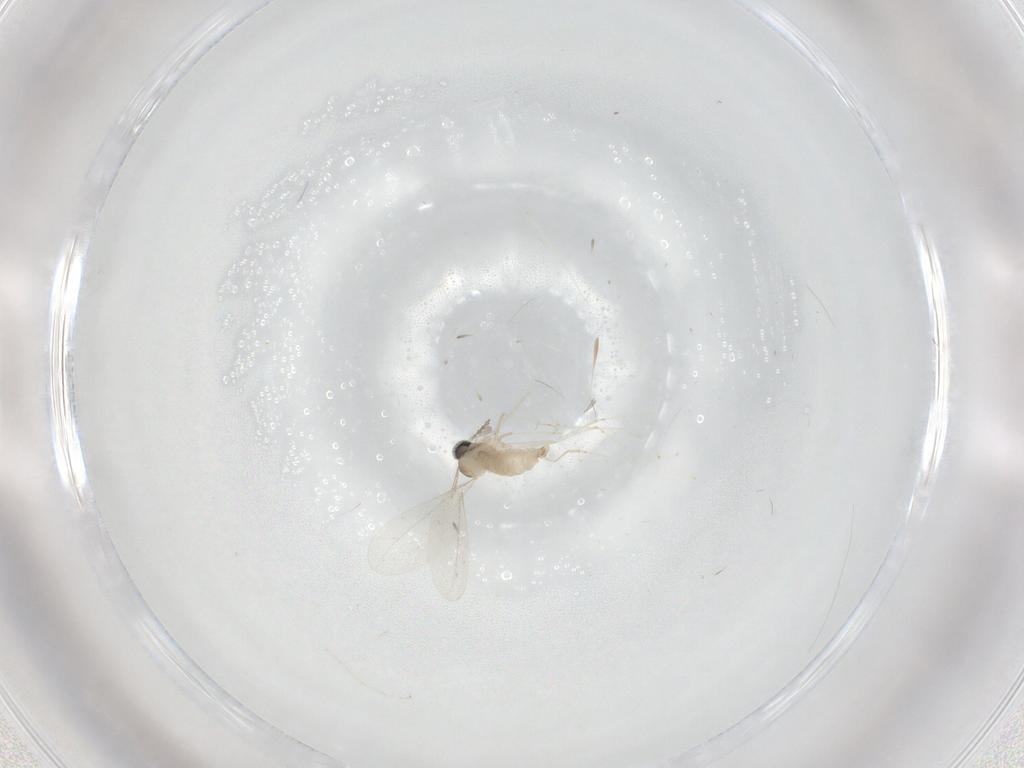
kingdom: Animalia
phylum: Arthropoda
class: Insecta
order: Diptera
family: Cecidomyiidae
